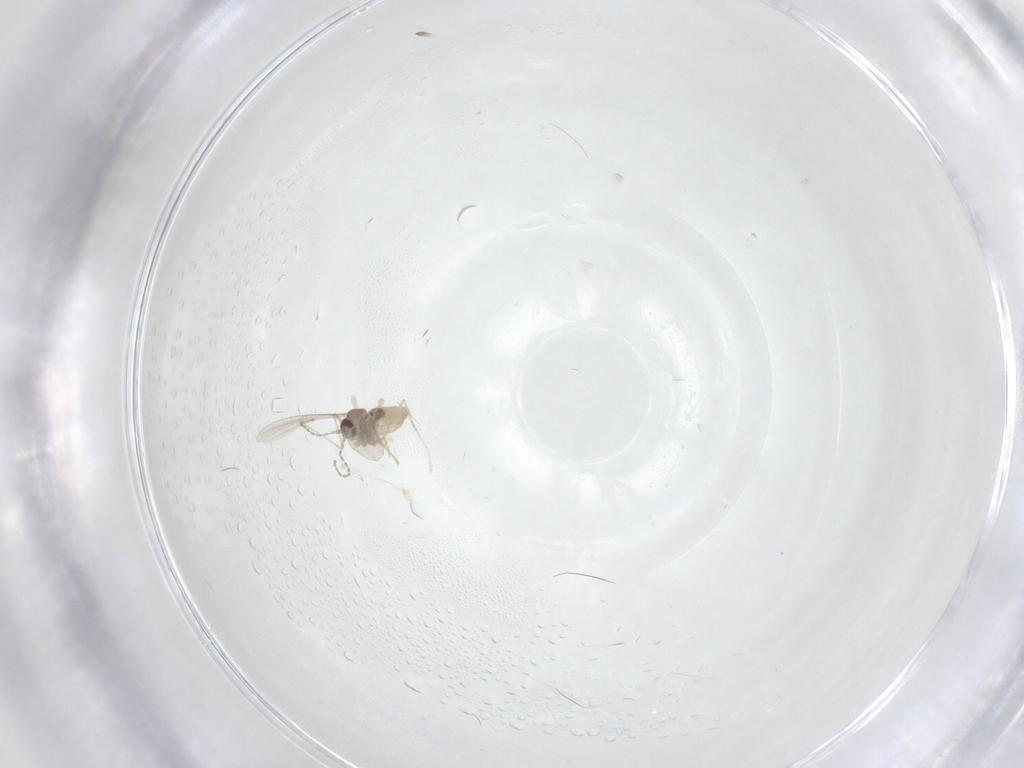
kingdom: Animalia
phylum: Arthropoda
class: Insecta
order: Diptera
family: Cecidomyiidae
